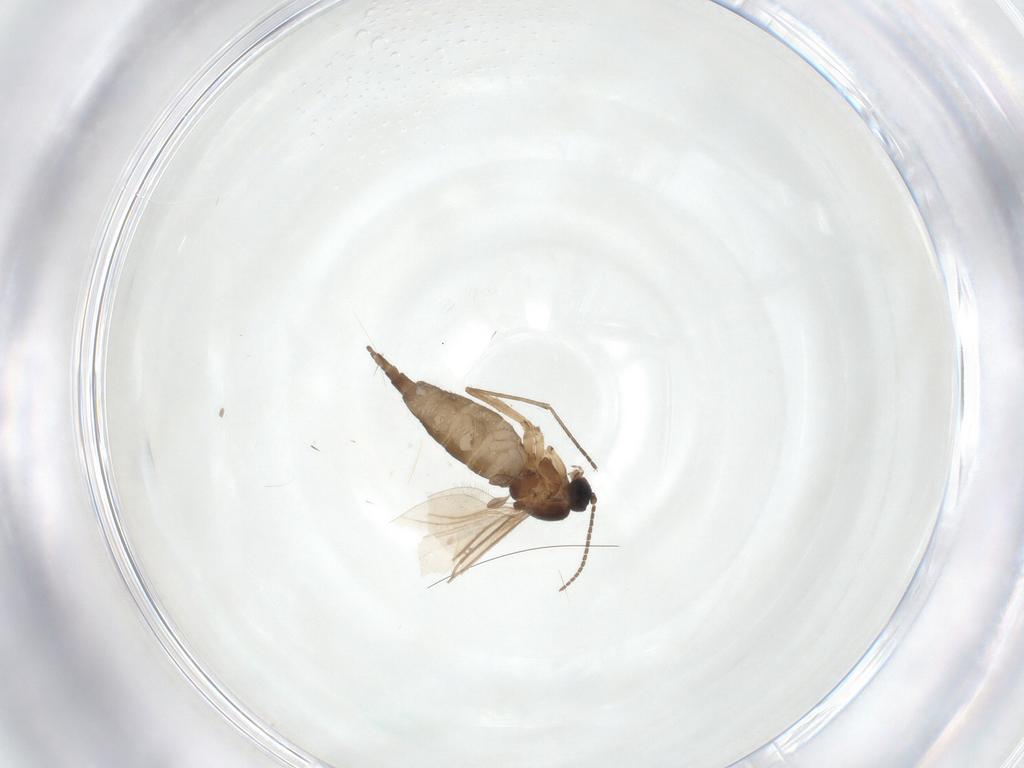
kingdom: Animalia
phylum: Arthropoda
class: Insecta
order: Diptera
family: Sciaridae
